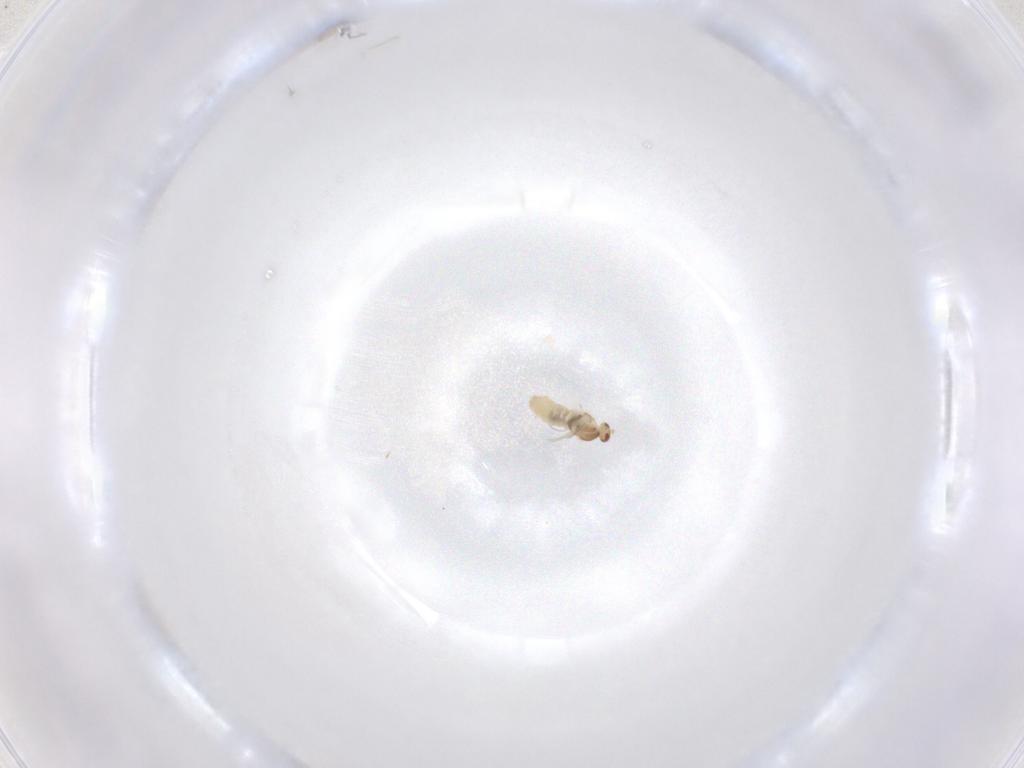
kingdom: Animalia
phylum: Arthropoda
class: Insecta
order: Diptera
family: Cecidomyiidae
